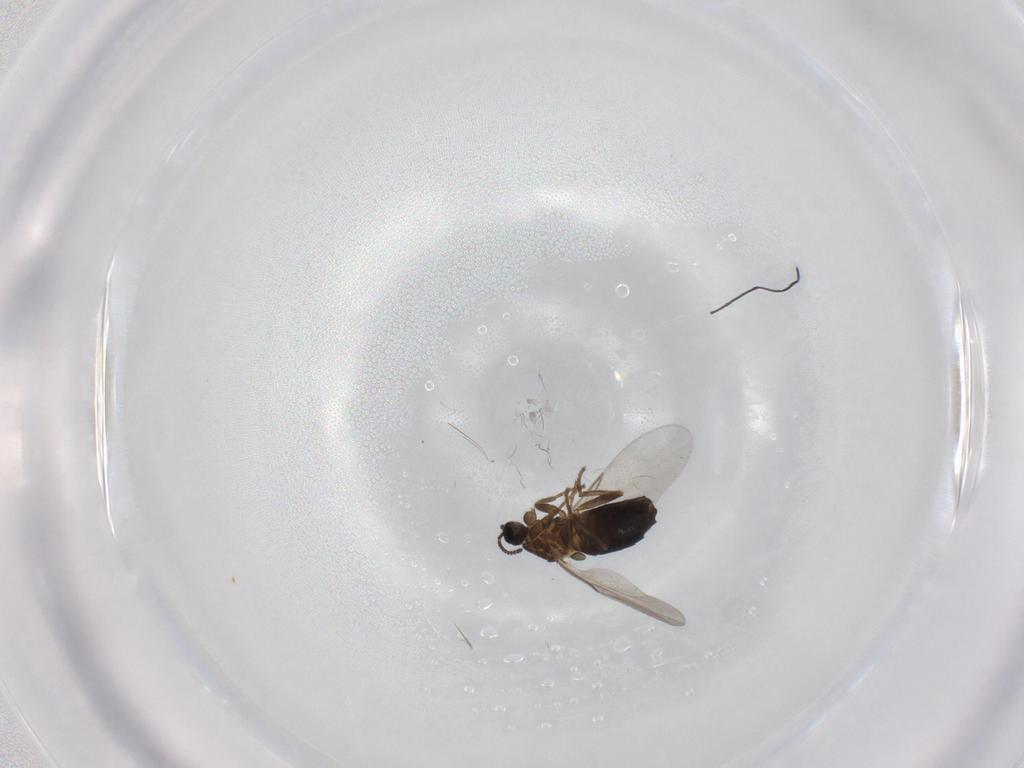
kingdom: Animalia
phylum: Arthropoda
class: Insecta
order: Diptera
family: Scatopsidae
